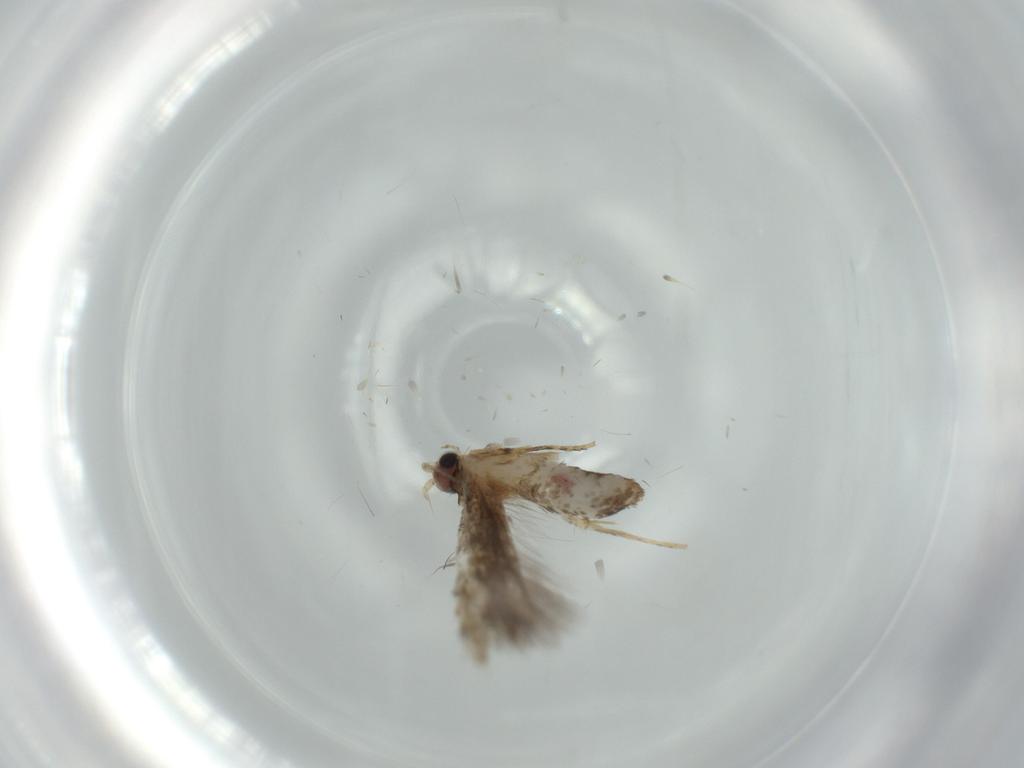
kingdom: Animalia
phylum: Arthropoda
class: Insecta
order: Lepidoptera
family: Tineidae
